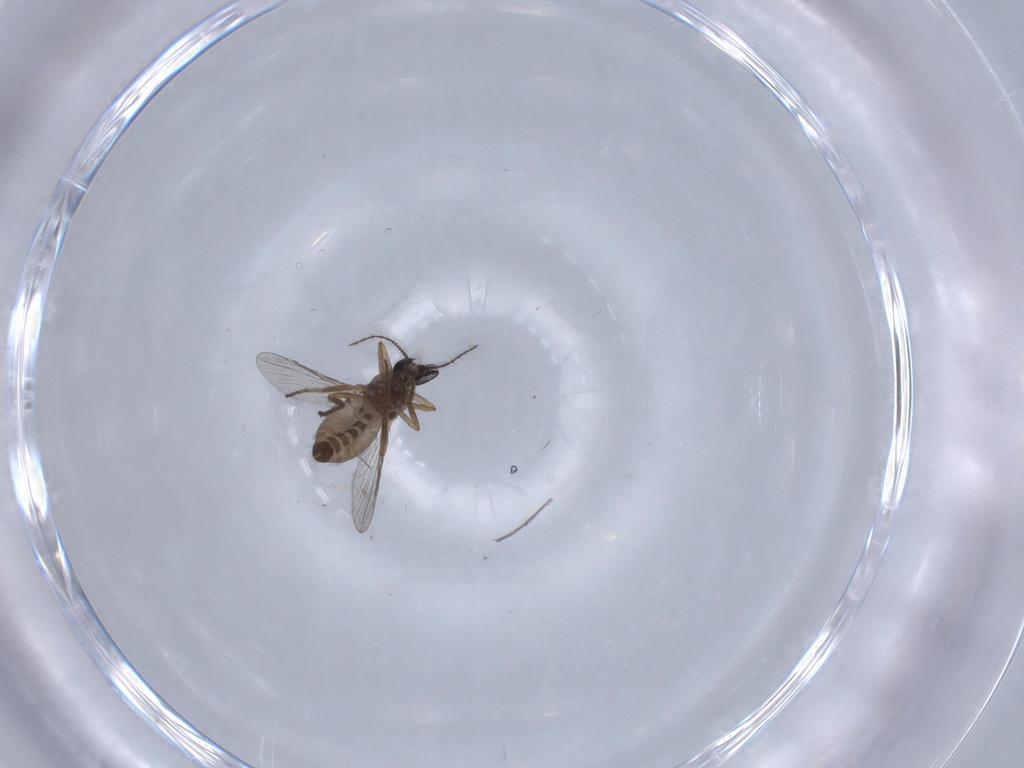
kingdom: Animalia
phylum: Arthropoda
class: Insecta
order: Diptera
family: Ceratopogonidae
